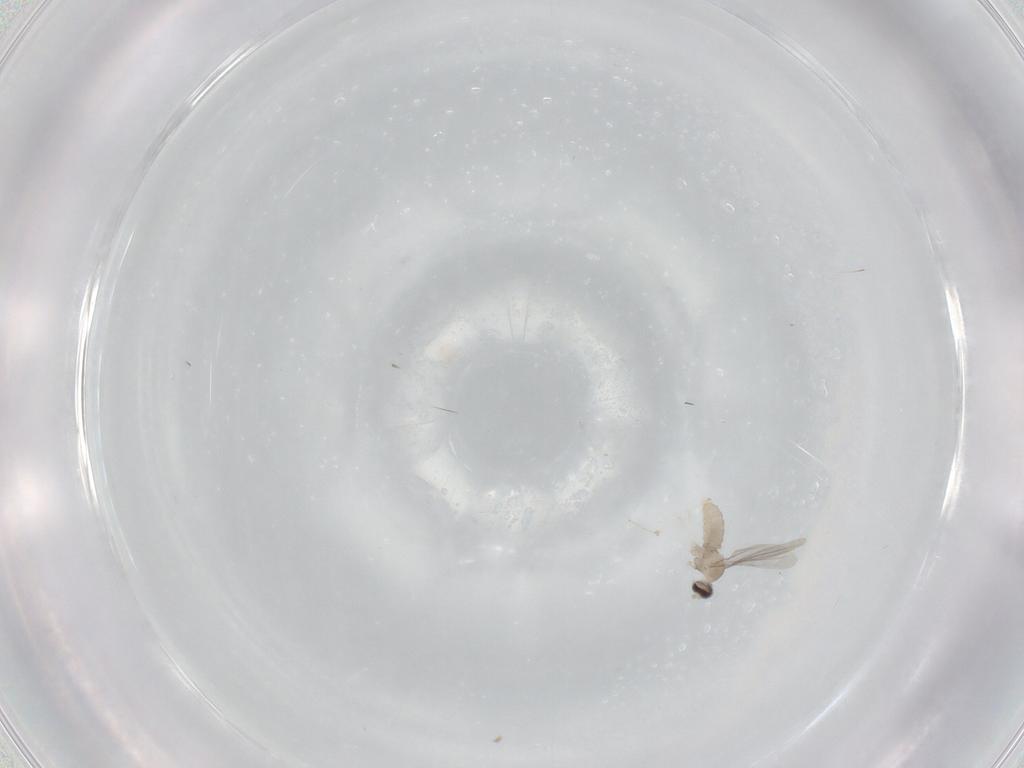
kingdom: Animalia
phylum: Arthropoda
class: Insecta
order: Diptera
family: Cecidomyiidae
